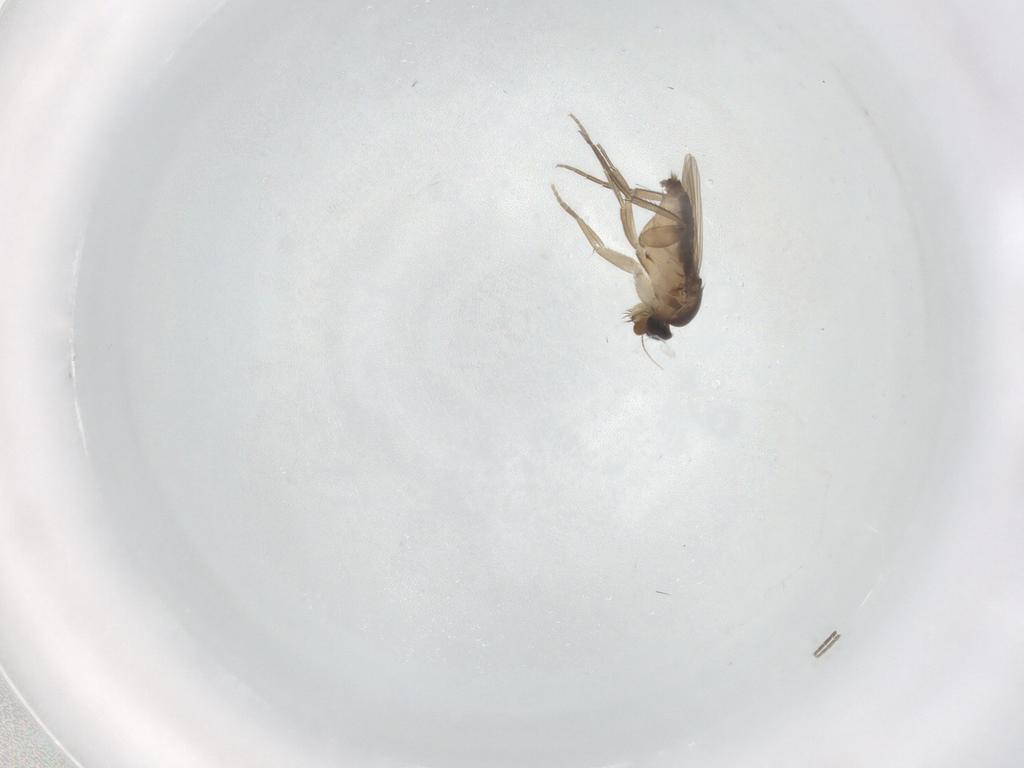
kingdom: Animalia
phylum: Arthropoda
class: Insecta
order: Diptera
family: Phoridae
